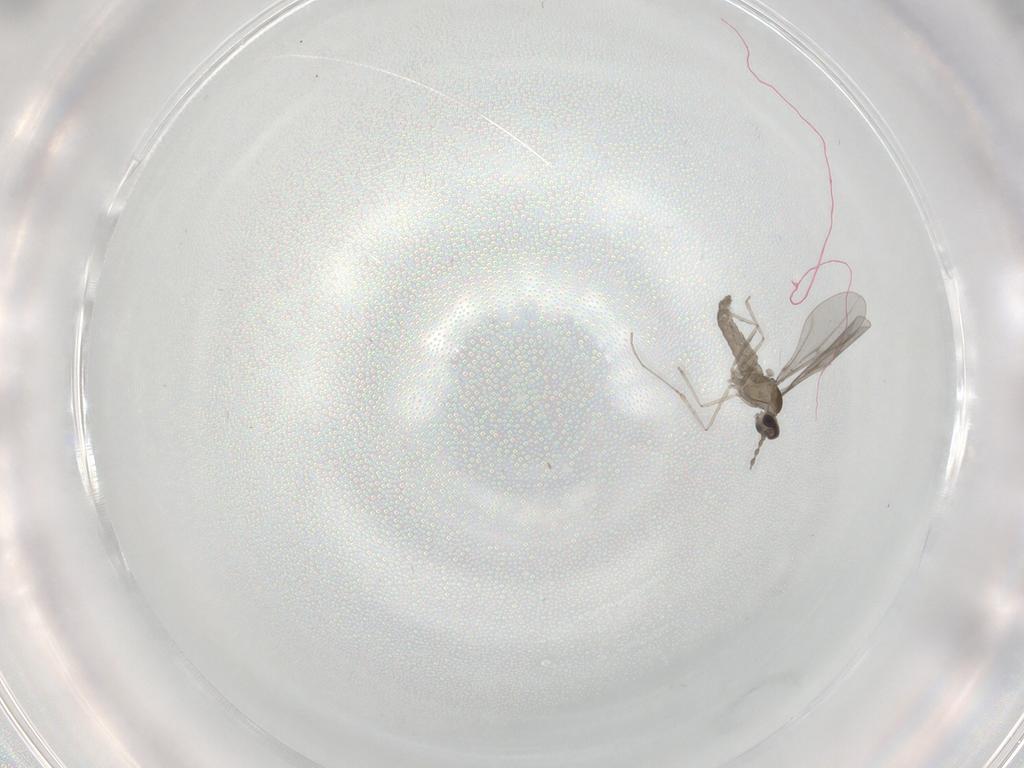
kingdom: Animalia
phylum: Arthropoda
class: Insecta
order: Diptera
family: Cecidomyiidae
